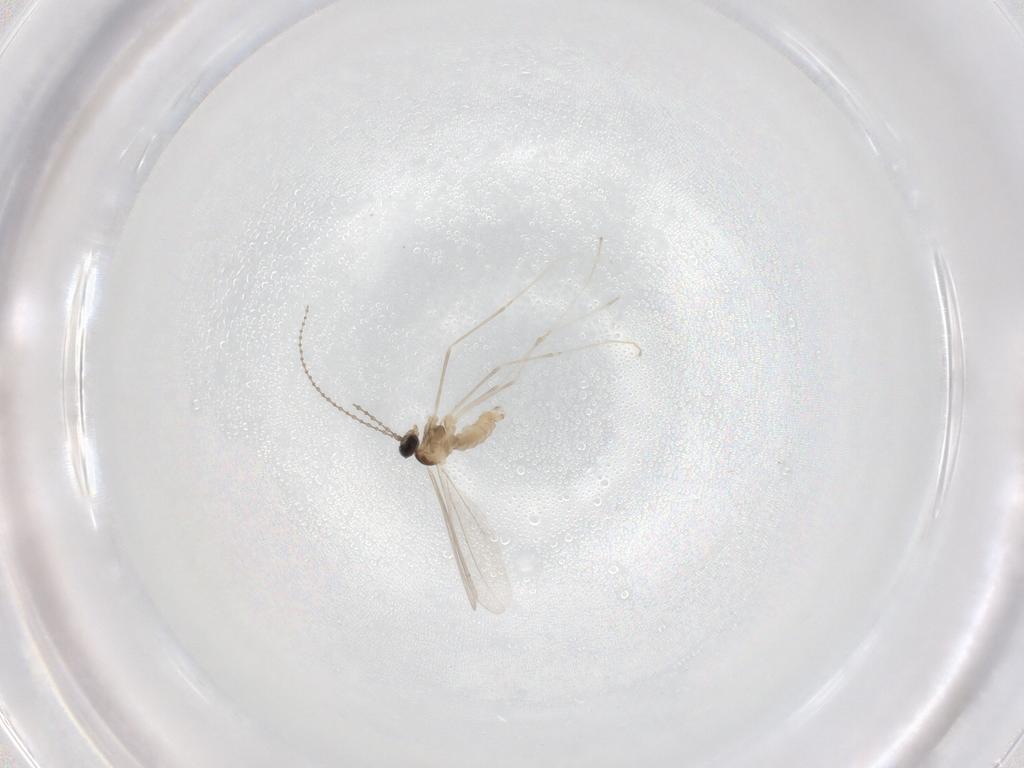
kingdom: Animalia
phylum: Arthropoda
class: Insecta
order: Diptera
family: Cecidomyiidae
